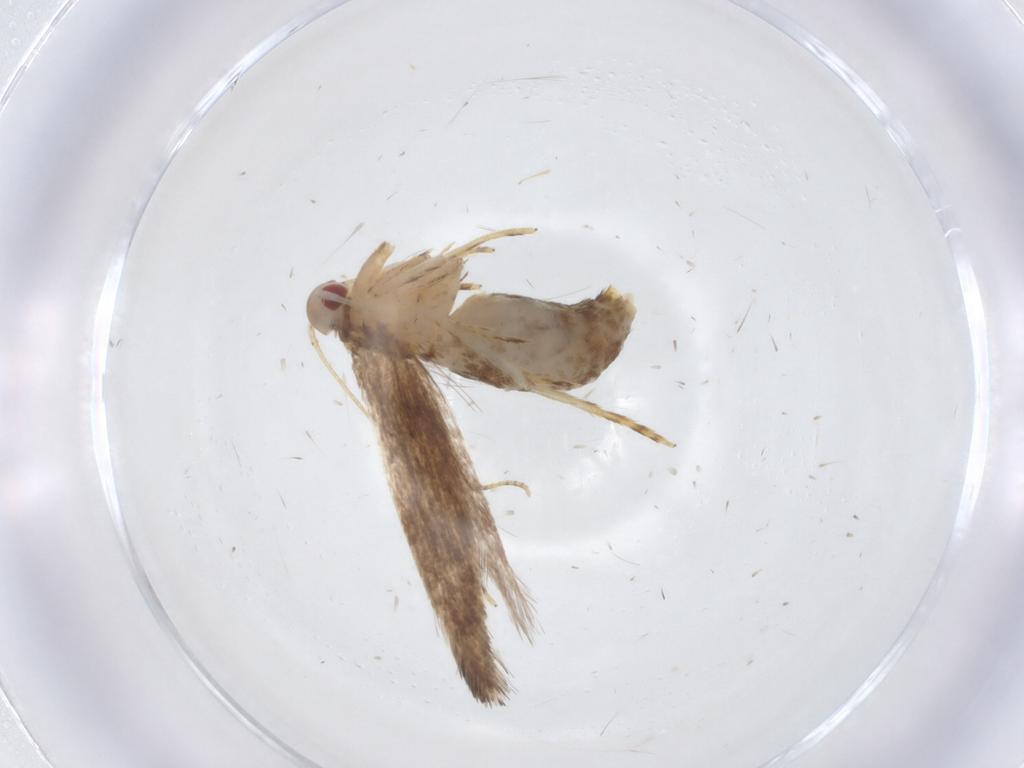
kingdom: Animalia
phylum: Arthropoda
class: Insecta
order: Lepidoptera
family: Cosmopterigidae
